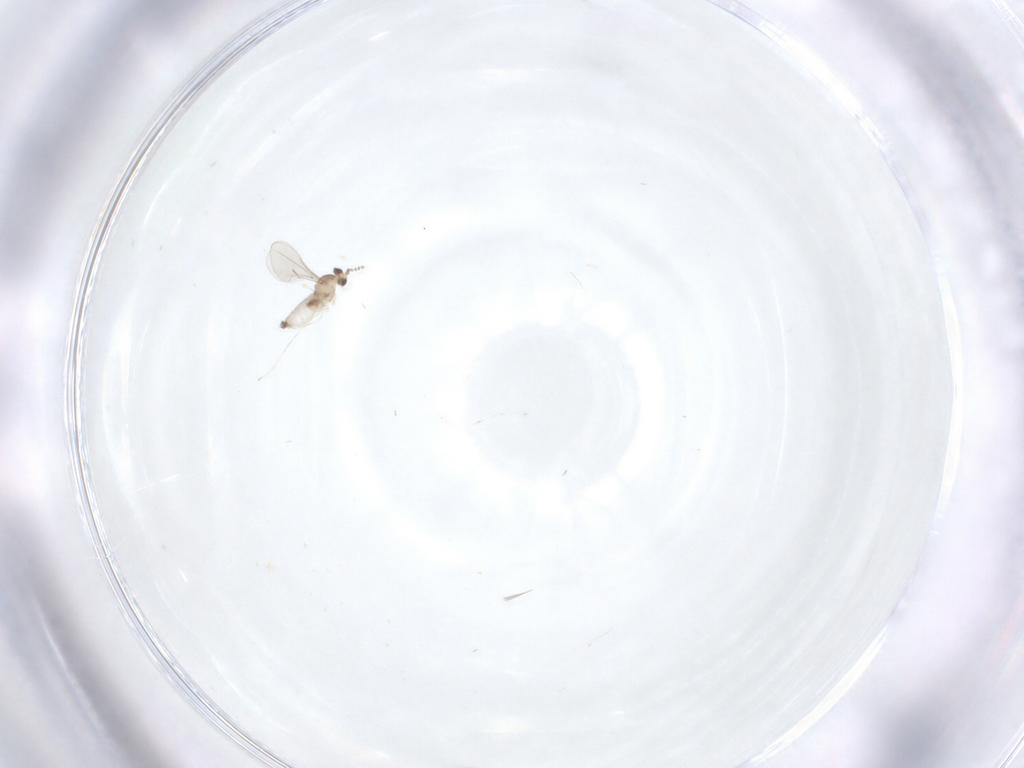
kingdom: Animalia
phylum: Arthropoda
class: Insecta
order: Diptera
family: Cecidomyiidae
